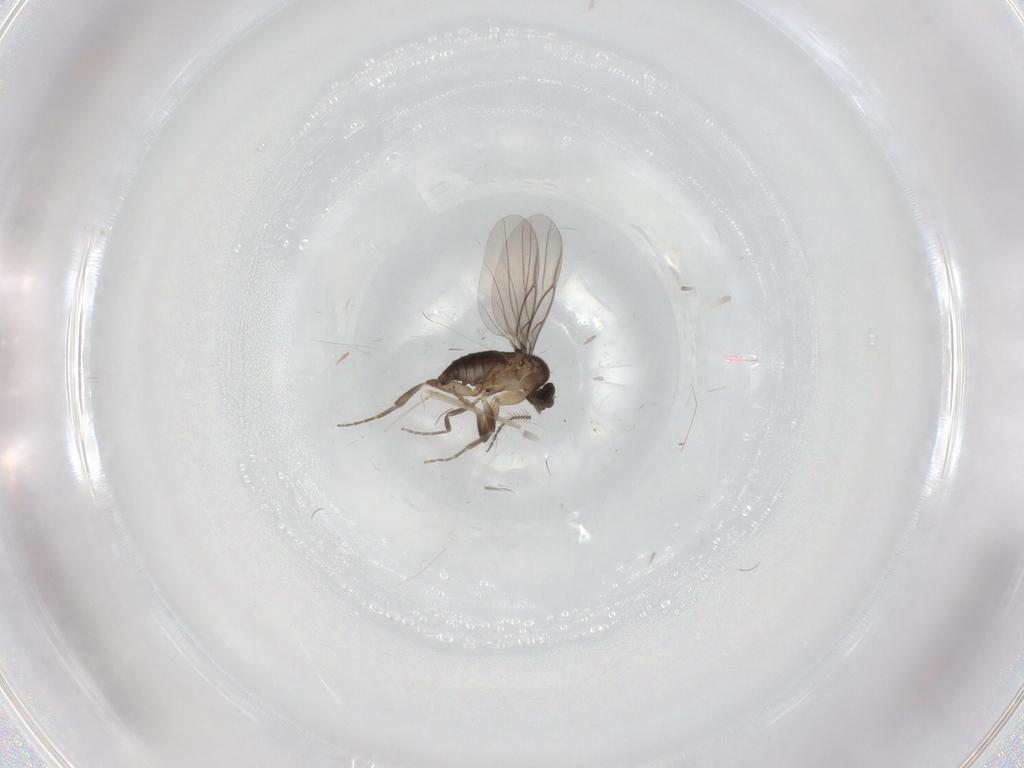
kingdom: Animalia
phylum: Arthropoda
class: Insecta
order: Diptera
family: Cecidomyiidae
